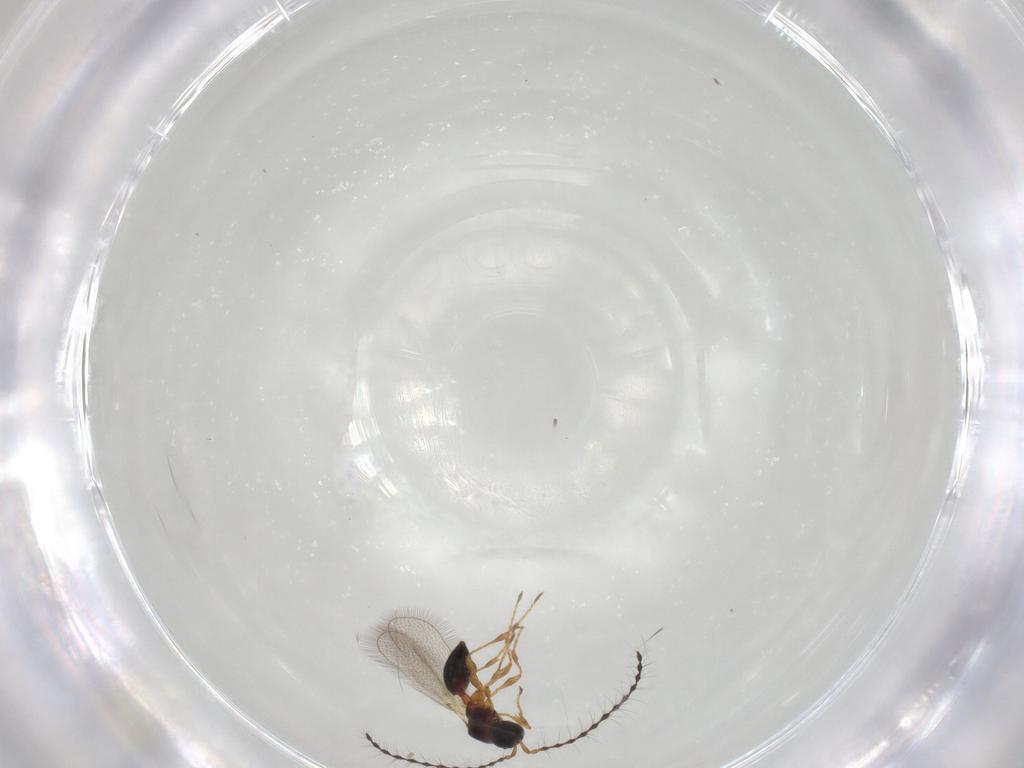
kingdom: Animalia
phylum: Arthropoda
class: Insecta
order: Hymenoptera
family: Diapriidae
